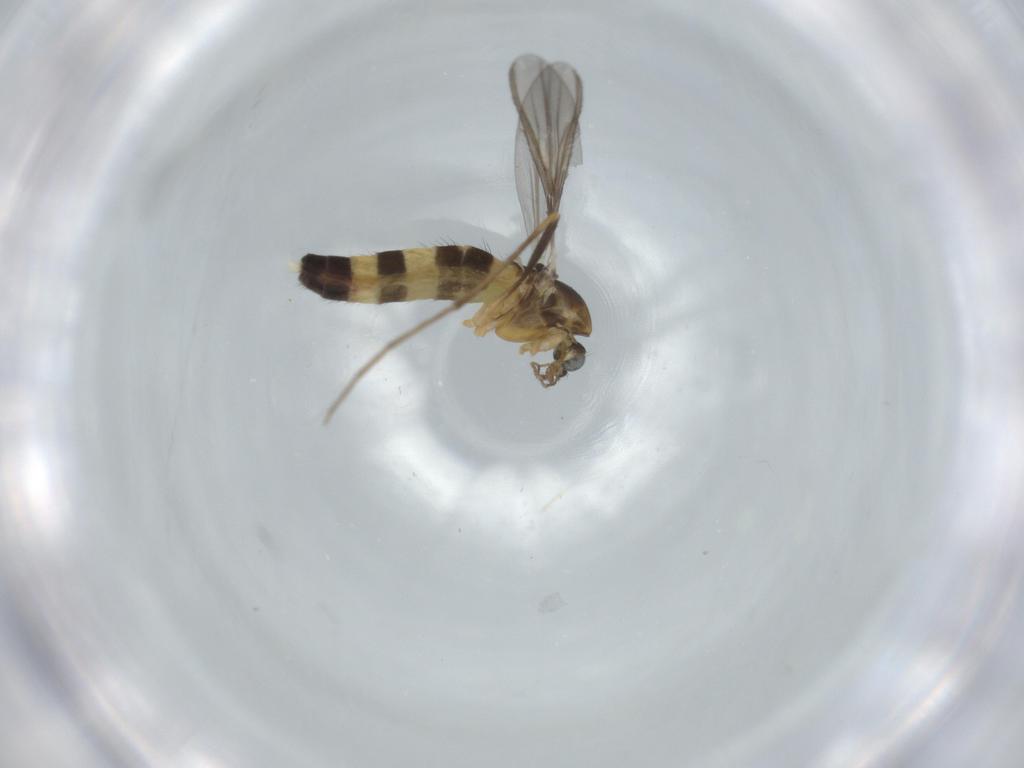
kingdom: Animalia
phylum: Arthropoda
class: Insecta
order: Diptera
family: Chironomidae
